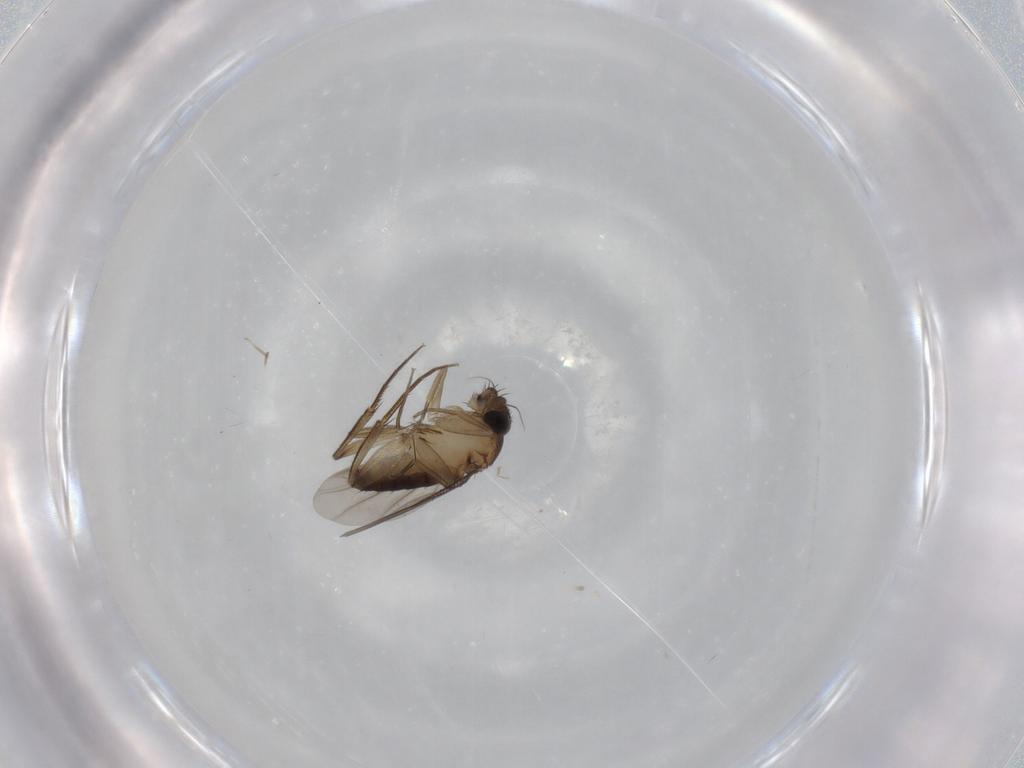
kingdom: Animalia
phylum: Arthropoda
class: Insecta
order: Diptera
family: Phoridae
